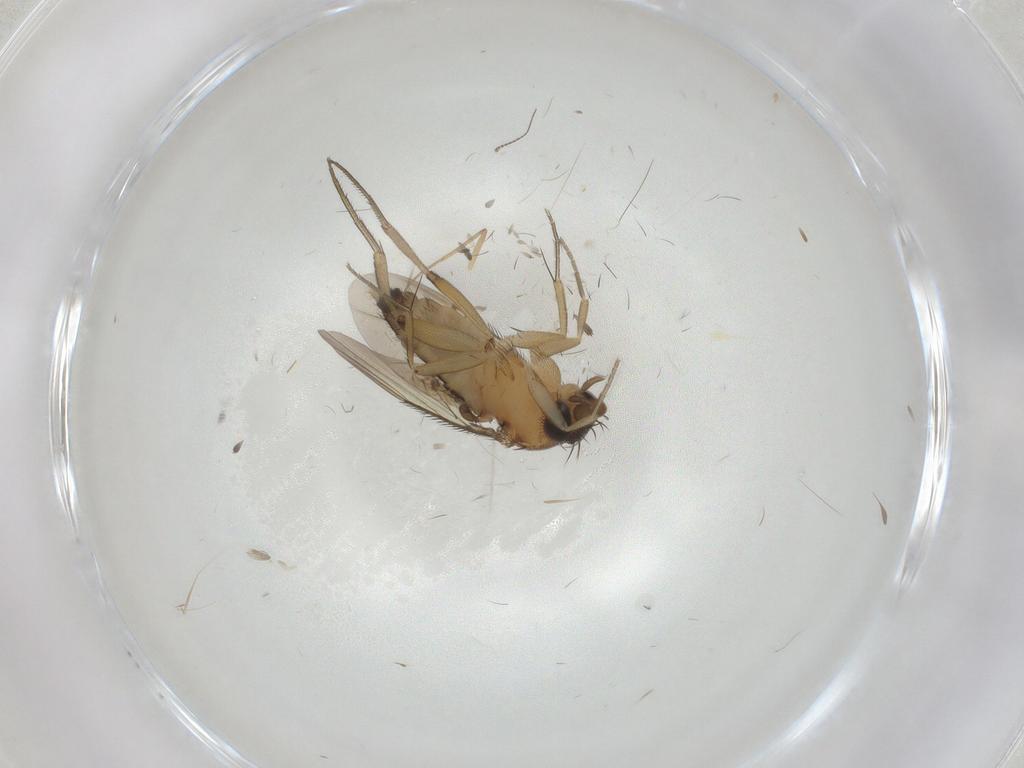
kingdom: Animalia
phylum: Arthropoda
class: Insecta
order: Diptera
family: Phoridae
